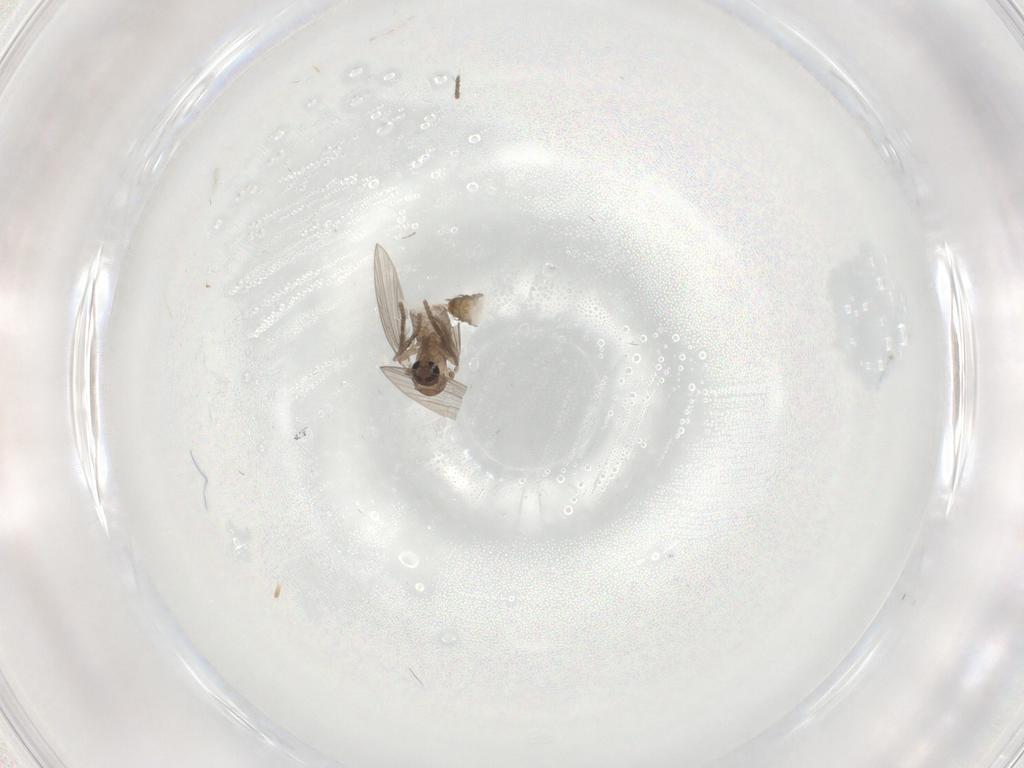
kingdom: Animalia
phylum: Arthropoda
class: Insecta
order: Diptera
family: Psychodidae
